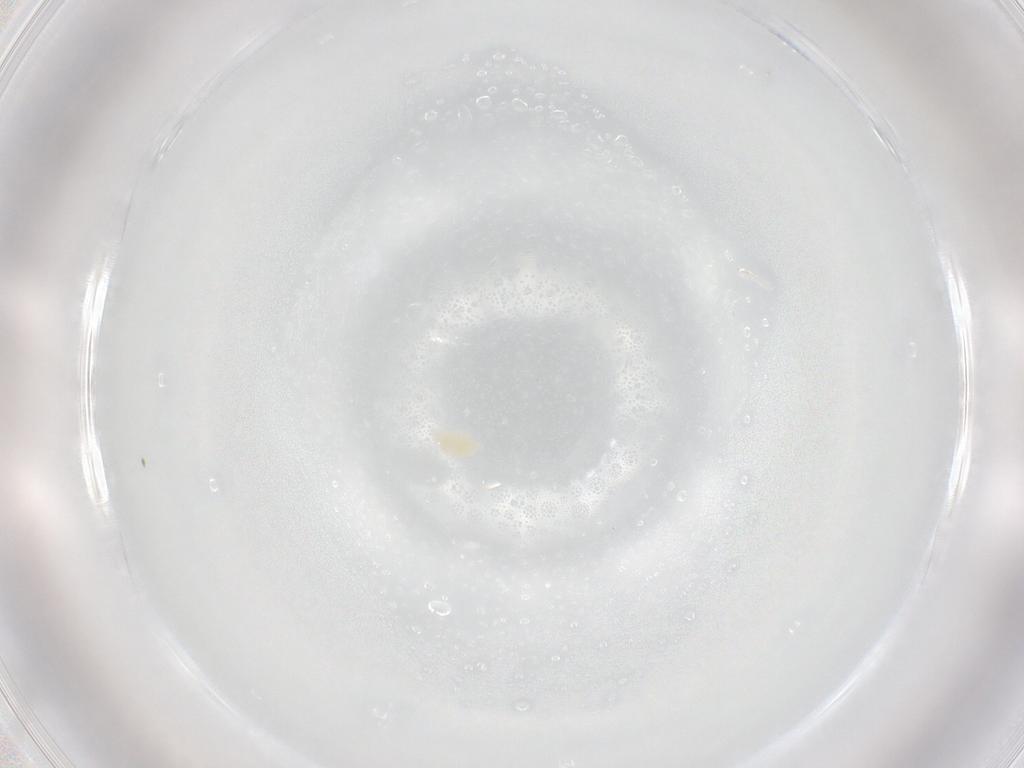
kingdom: Animalia
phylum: Arthropoda
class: Arachnida
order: Trombidiformes
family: Eupodidae
